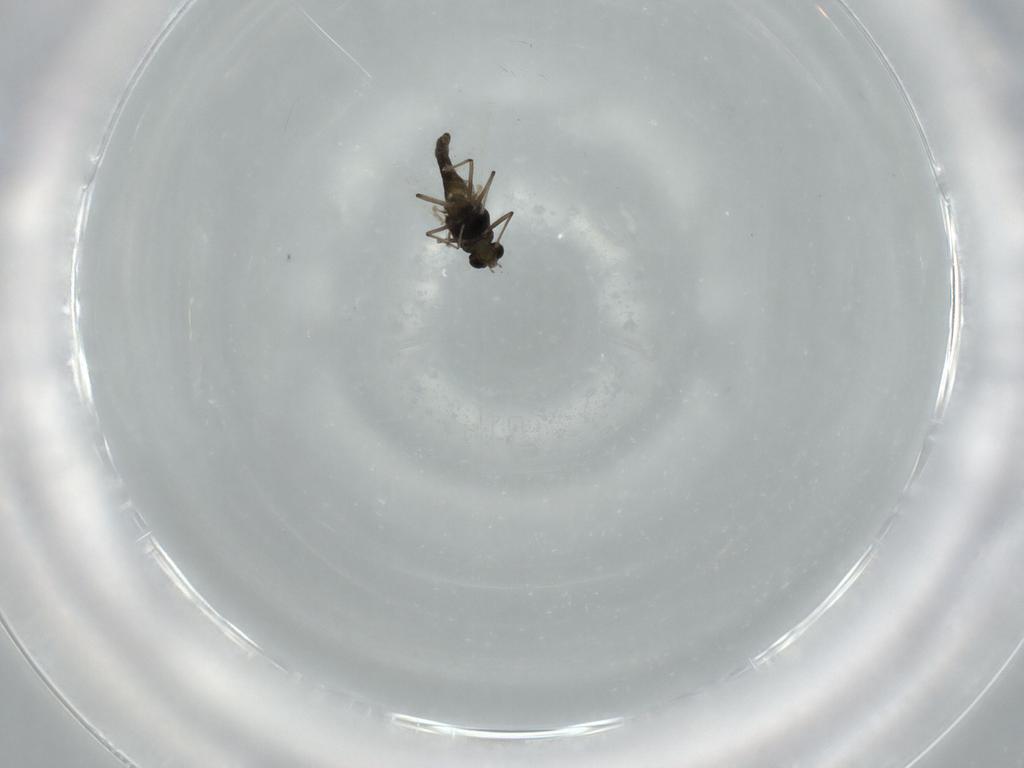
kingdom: Animalia
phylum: Arthropoda
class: Insecta
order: Diptera
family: Chironomidae
